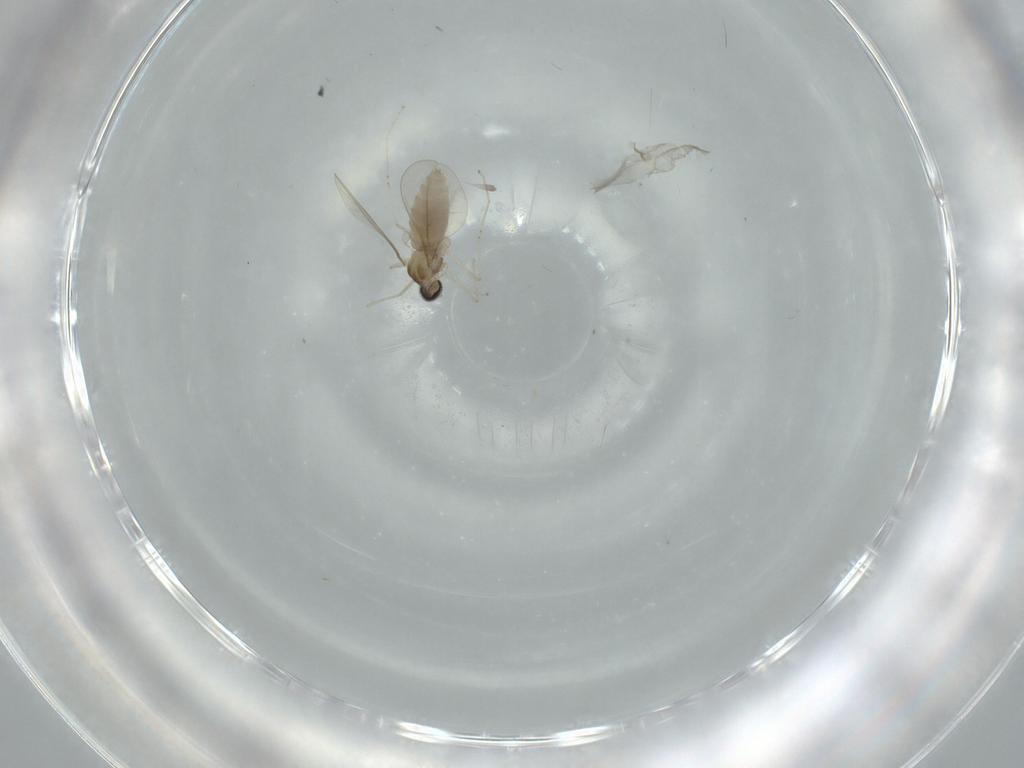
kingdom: Animalia
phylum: Arthropoda
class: Insecta
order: Diptera
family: Cecidomyiidae
